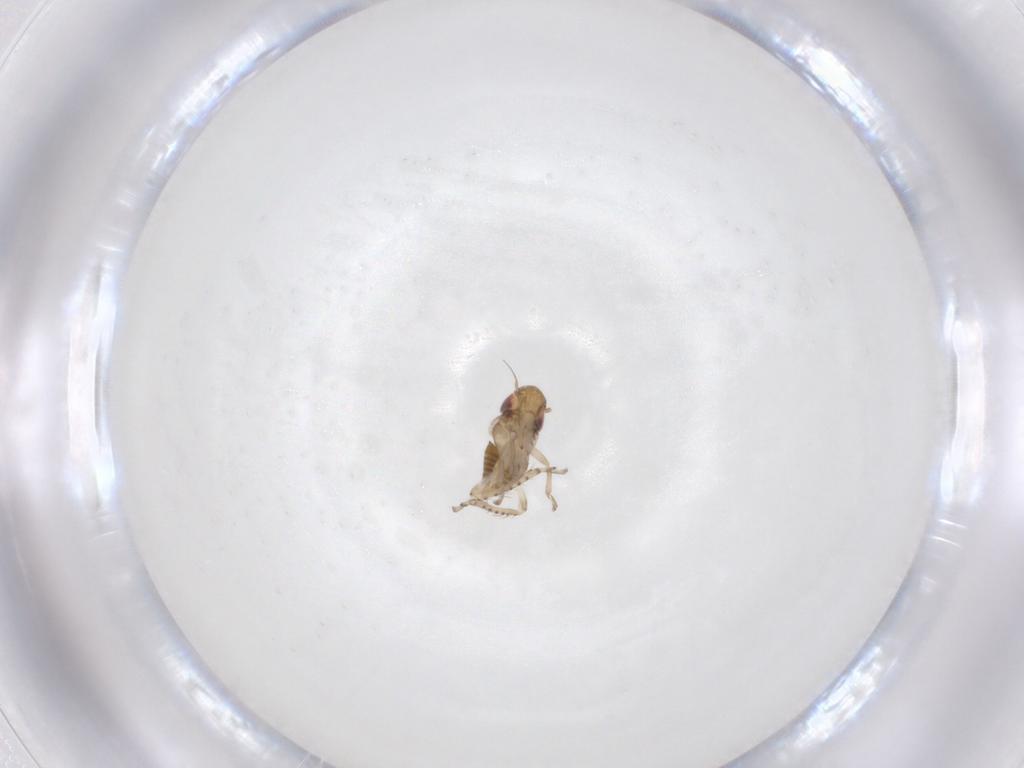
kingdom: Animalia
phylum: Arthropoda
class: Insecta
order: Hemiptera
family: Cicadellidae
